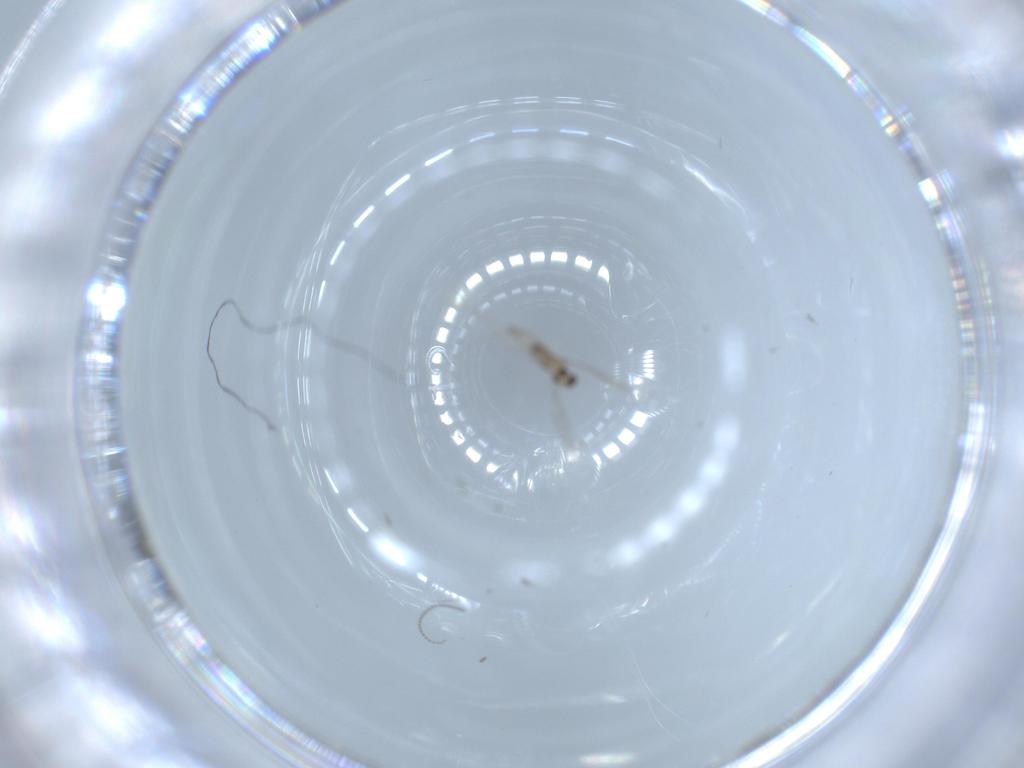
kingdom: Animalia
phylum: Arthropoda
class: Insecta
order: Diptera
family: Cecidomyiidae
